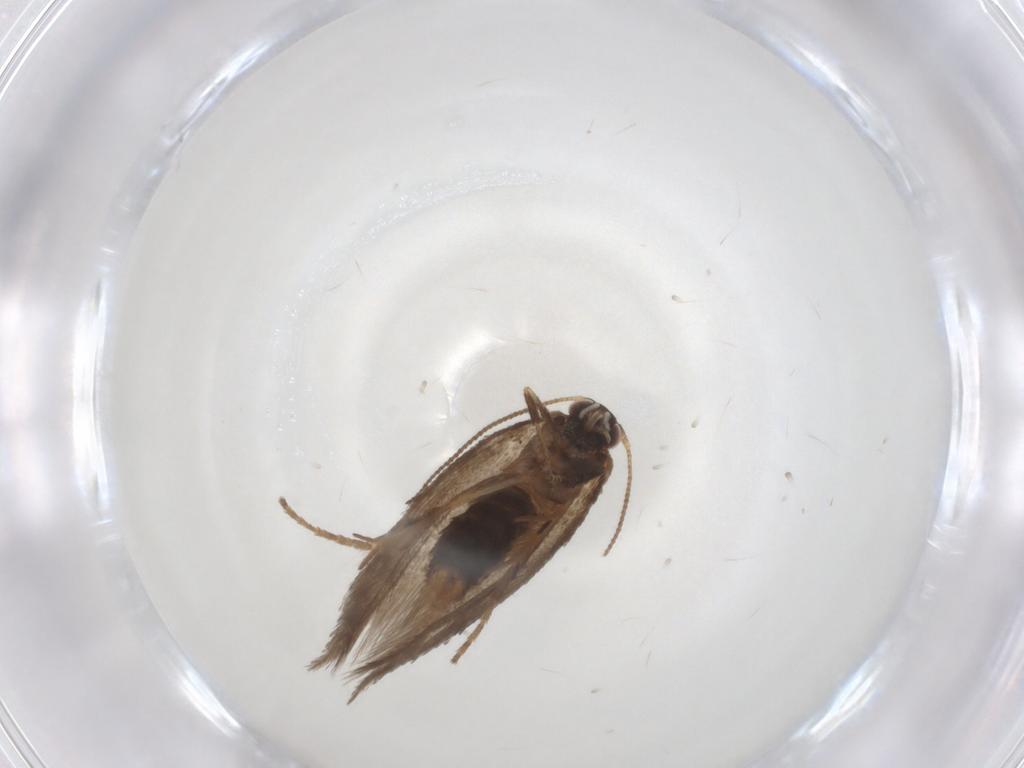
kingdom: Animalia
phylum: Arthropoda
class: Insecta
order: Lepidoptera
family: Nepticulidae
